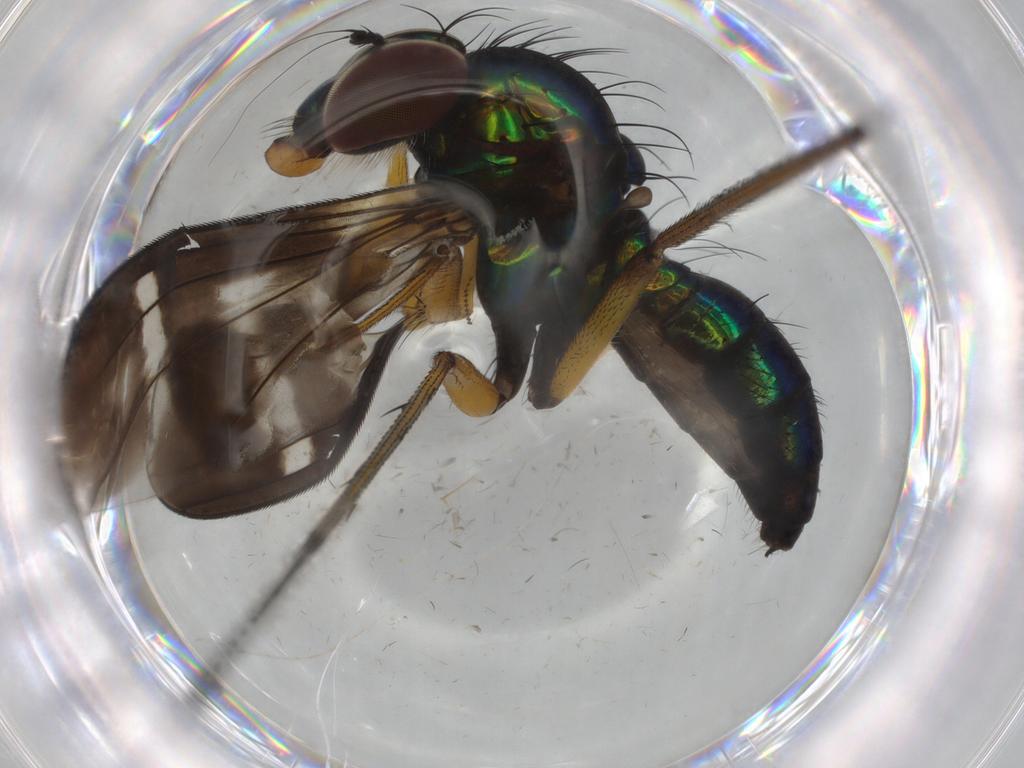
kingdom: Animalia
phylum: Arthropoda
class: Insecta
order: Diptera
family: Dolichopodidae
